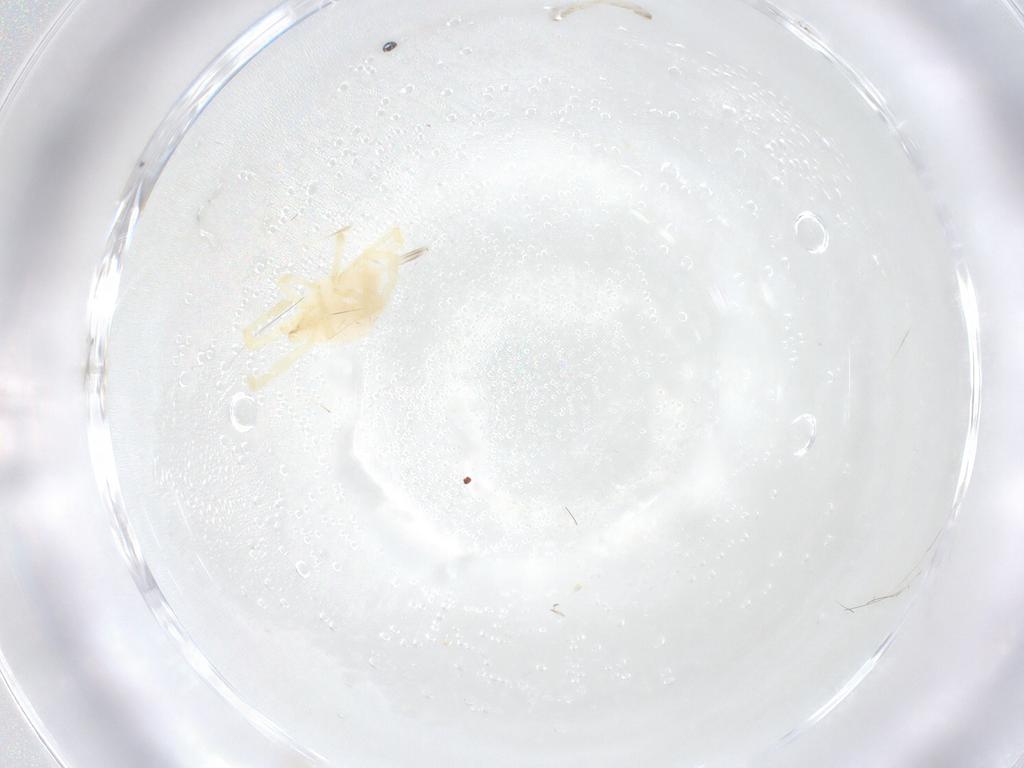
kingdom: Animalia
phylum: Arthropoda
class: Arachnida
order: Trombidiformes
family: Erythraeidae
